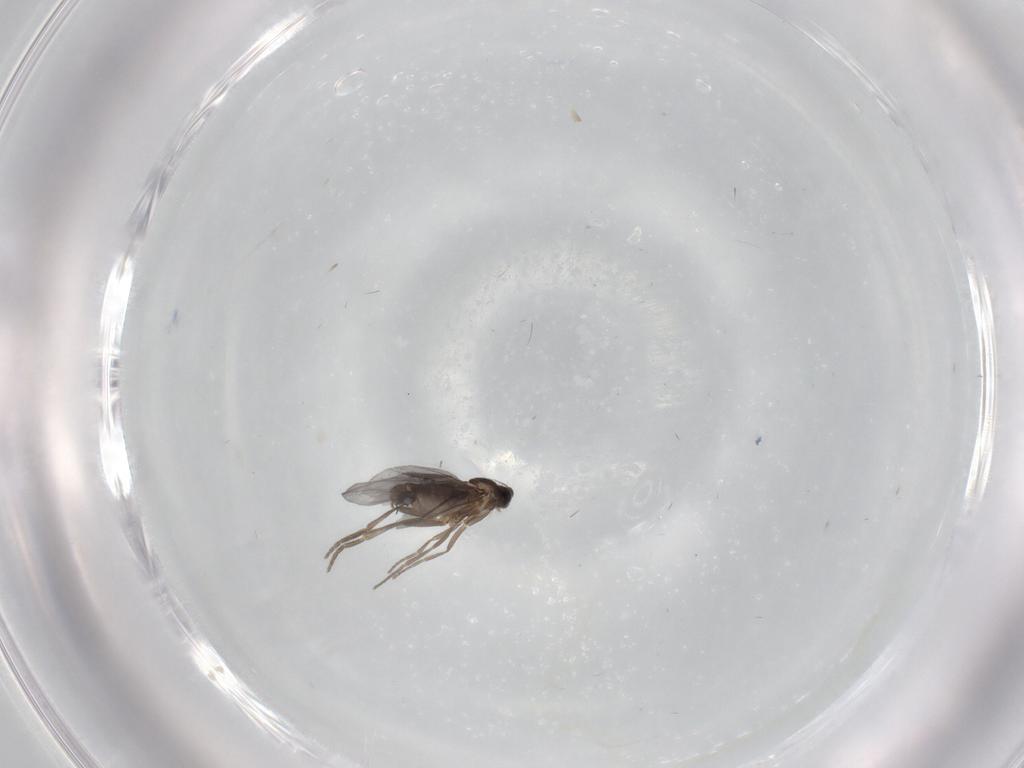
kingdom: Animalia
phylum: Arthropoda
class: Insecta
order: Diptera
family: Phoridae
